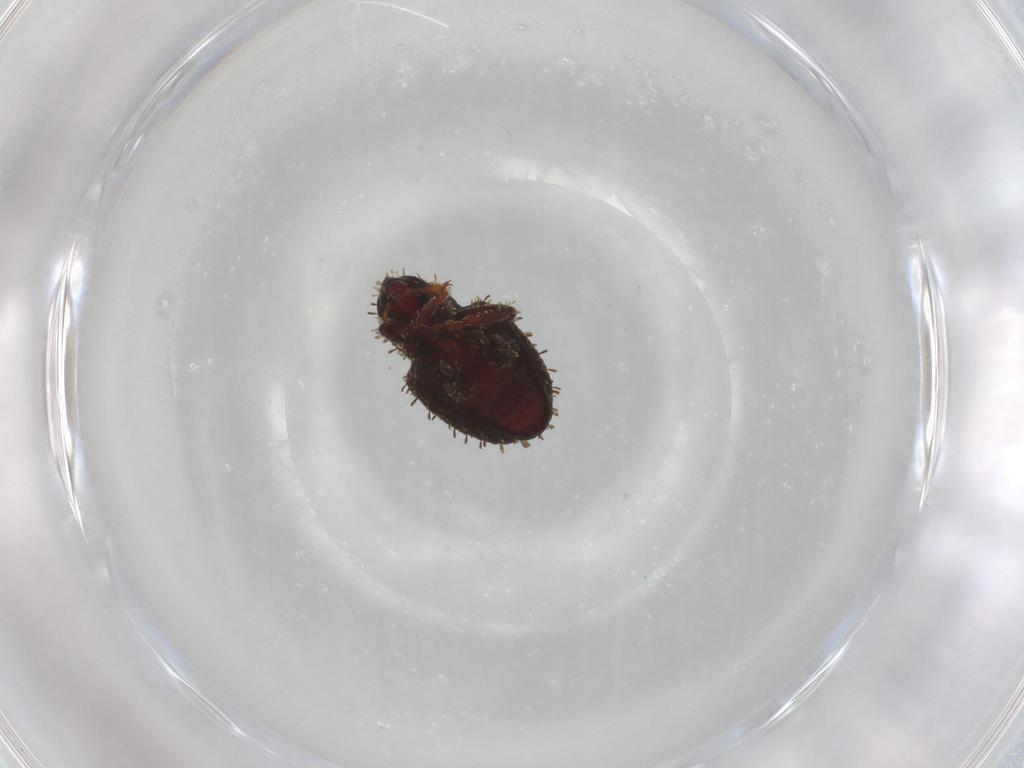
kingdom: Animalia
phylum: Arthropoda
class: Insecta
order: Coleoptera
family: Curculionidae
